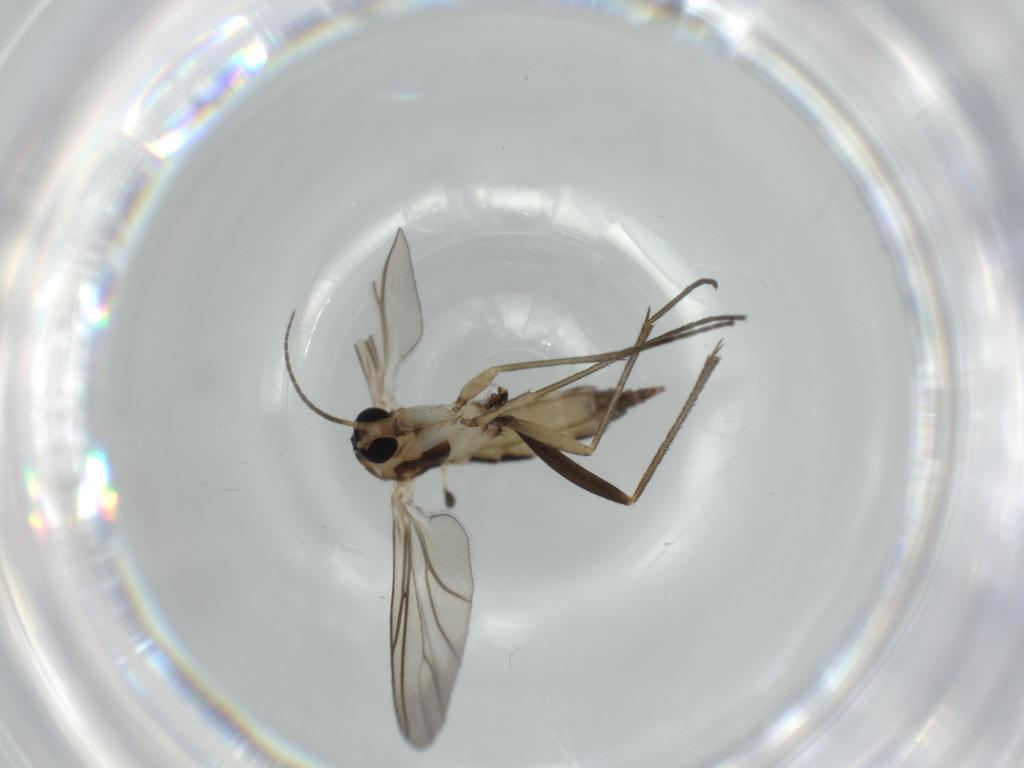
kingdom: Animalia
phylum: Arthropoda
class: Insecta
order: Diptera
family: Sciaridae
